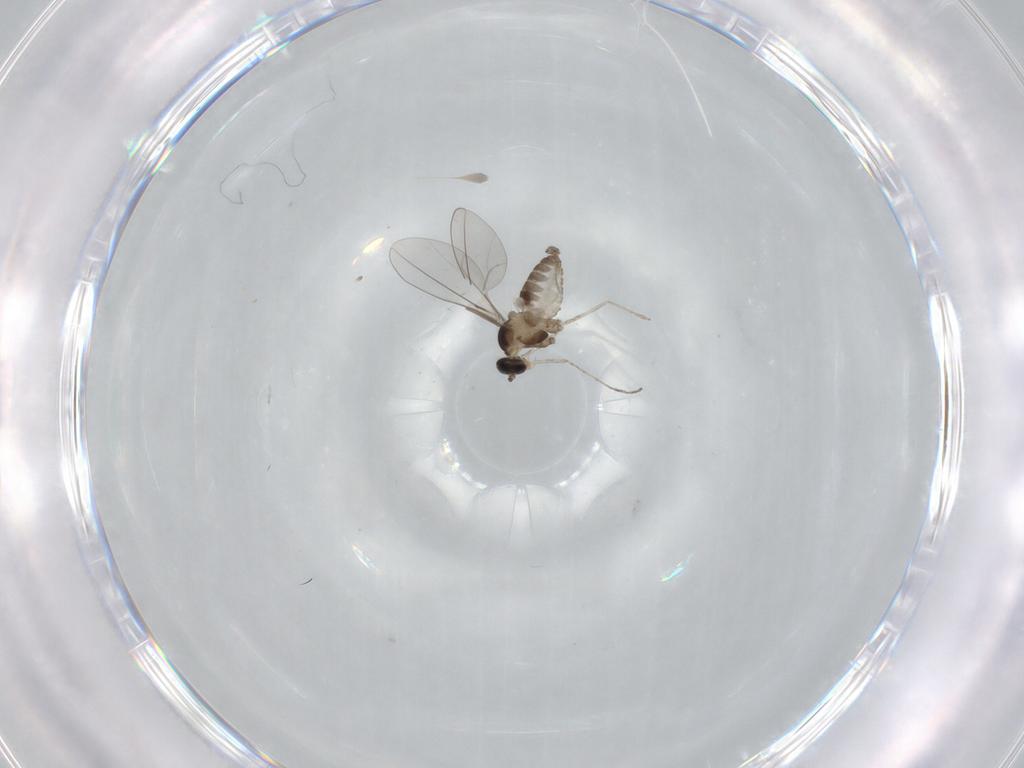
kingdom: Animalia
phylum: Arthropoda
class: Insecta
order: Diptera
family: Cecidomyiidae
